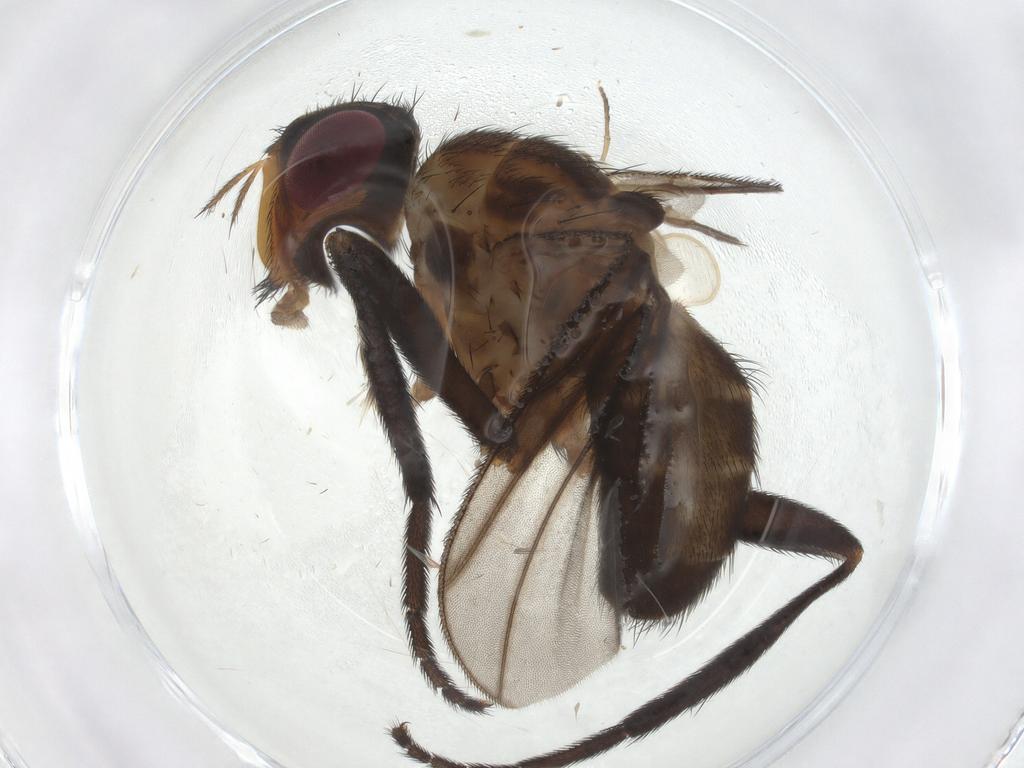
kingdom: Animalia
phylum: Arthropoda
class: Insecta
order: Diptera
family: Calliphoridae
